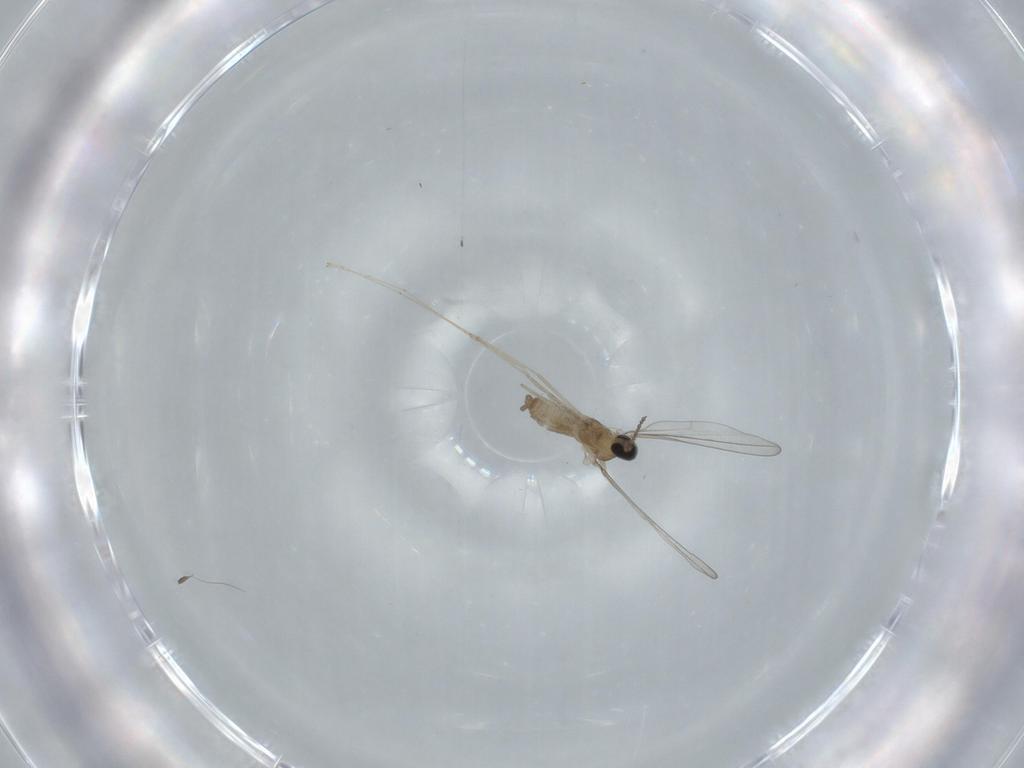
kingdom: Animalia
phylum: Arthropoda
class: Insecta
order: Diptera
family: Cecidomyiidae
